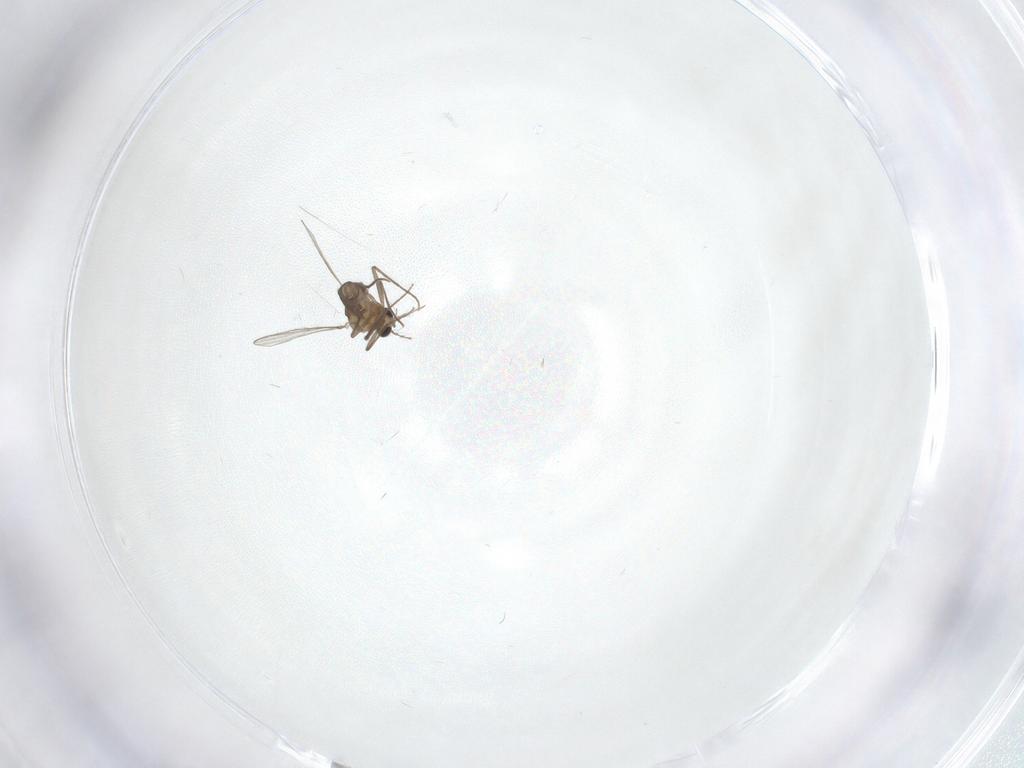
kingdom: Animalia
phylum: Arthropoda
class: Insecta
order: Diptera
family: Chironomidae
